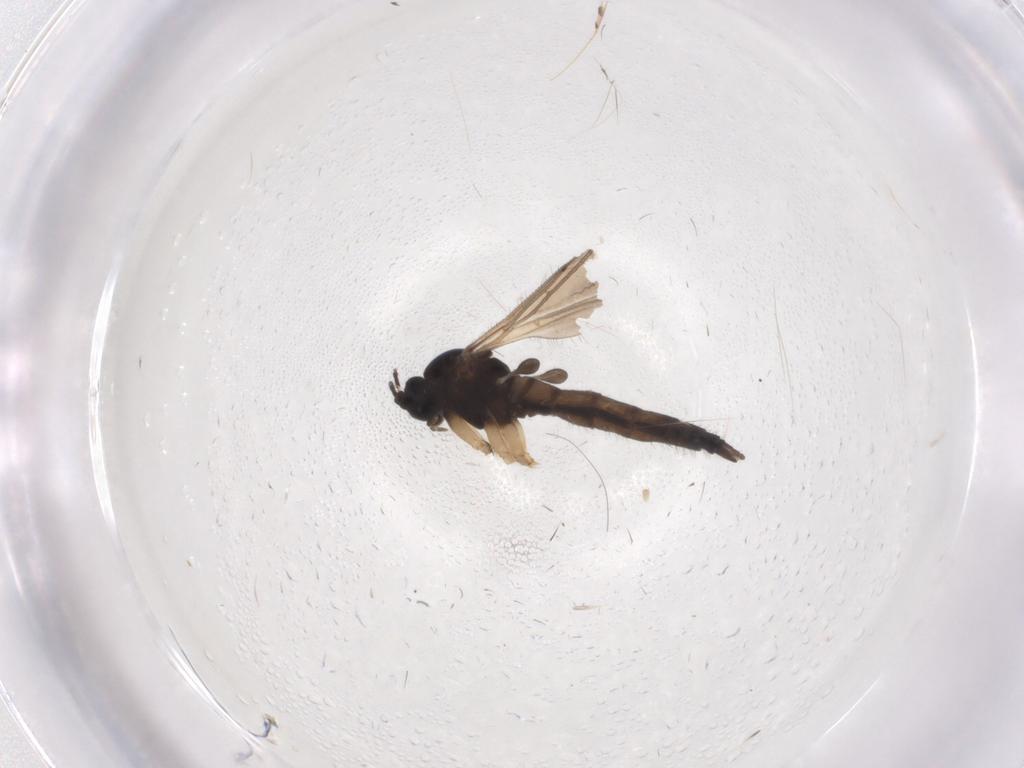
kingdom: Animalia
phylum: Arthropoda
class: Insecta
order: Diptera
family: Sciaridae
